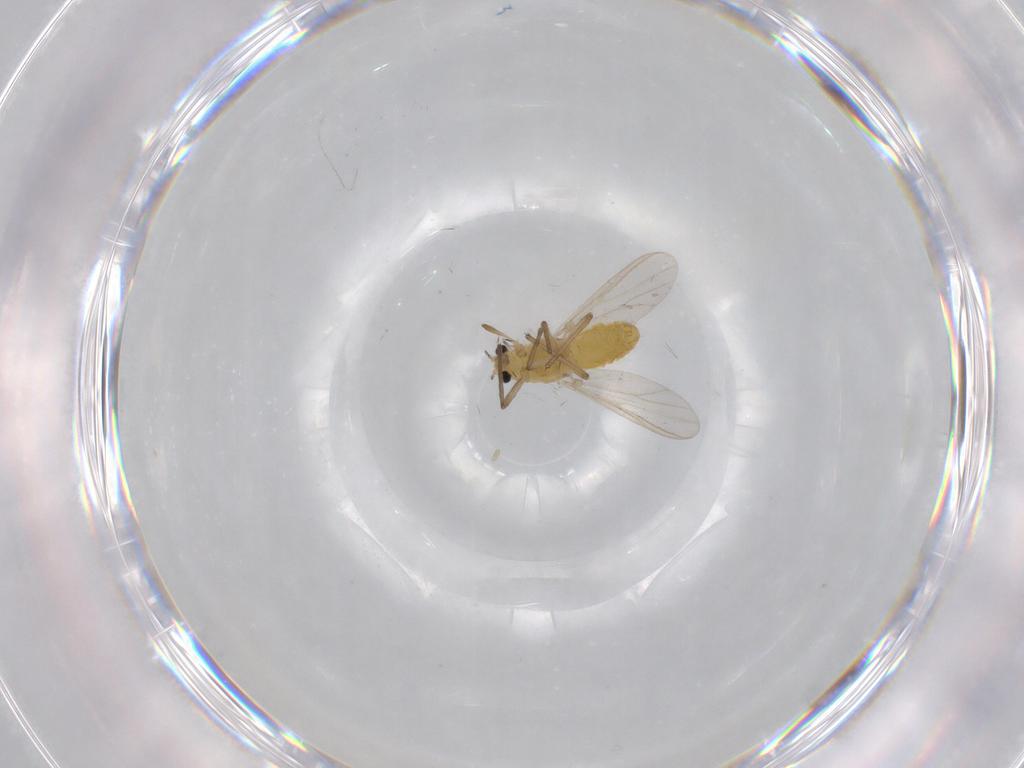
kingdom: Animalia
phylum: Arthropoda
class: Insecta
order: Diptera
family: Chironomidae
